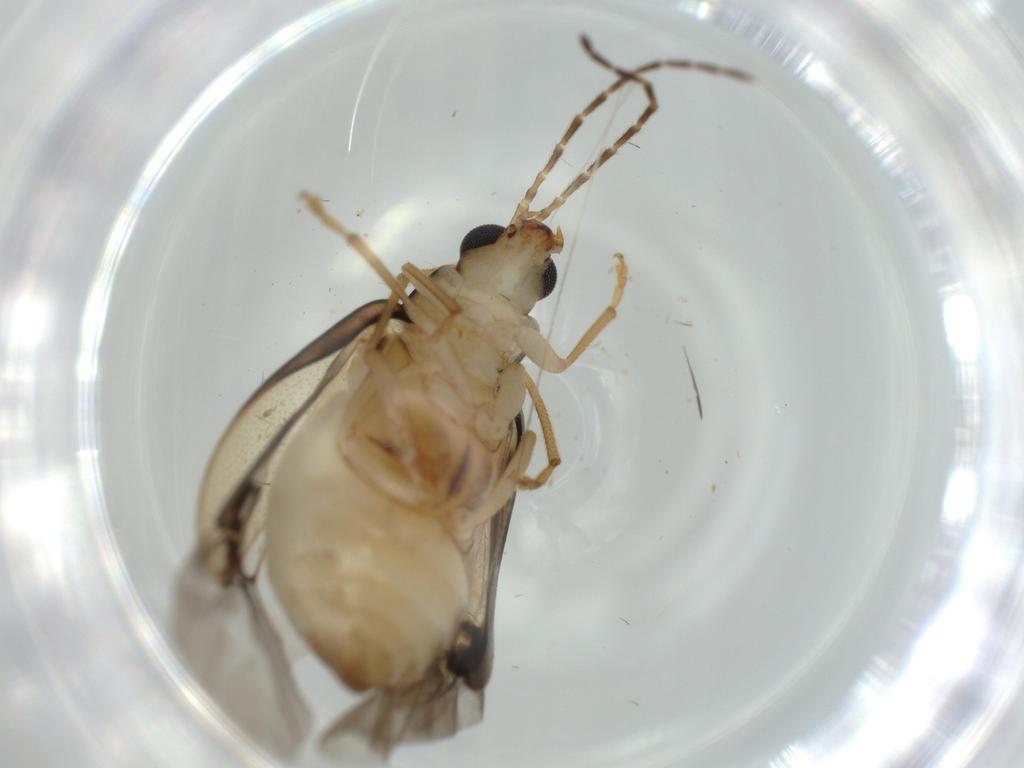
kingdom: Animalia
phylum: Arthropoda
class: Insecta
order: Coleoptera
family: Chrysomelidae
